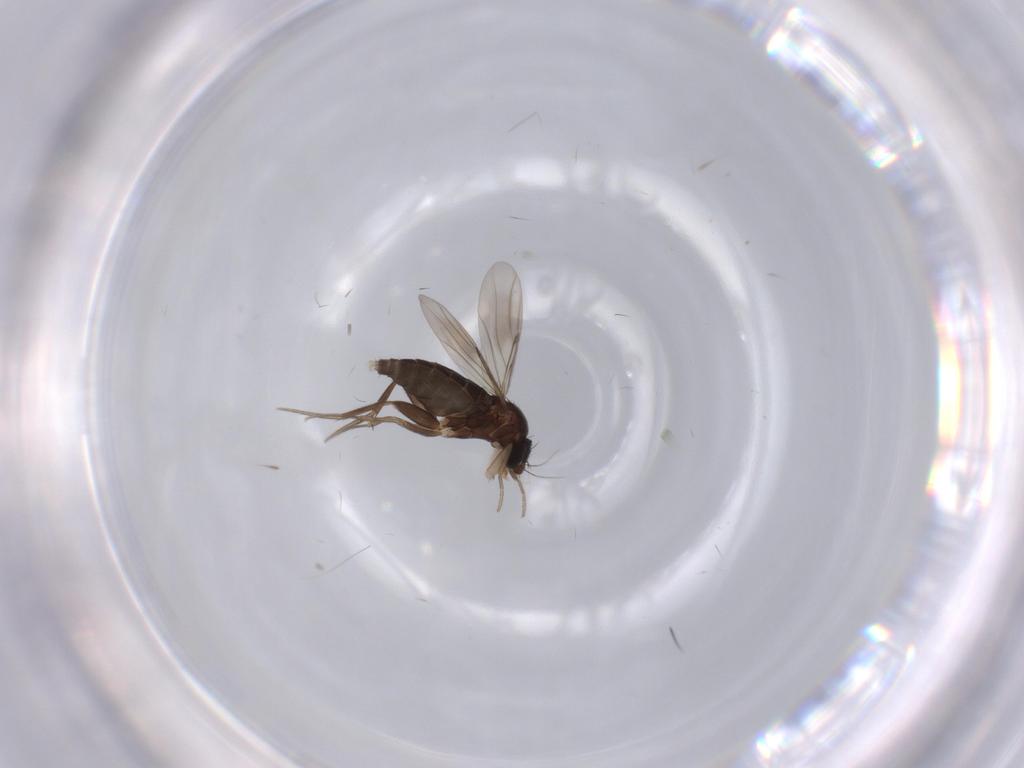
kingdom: Animalia
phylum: Arthropoda
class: Insecta
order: Diptera
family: Phoridae
